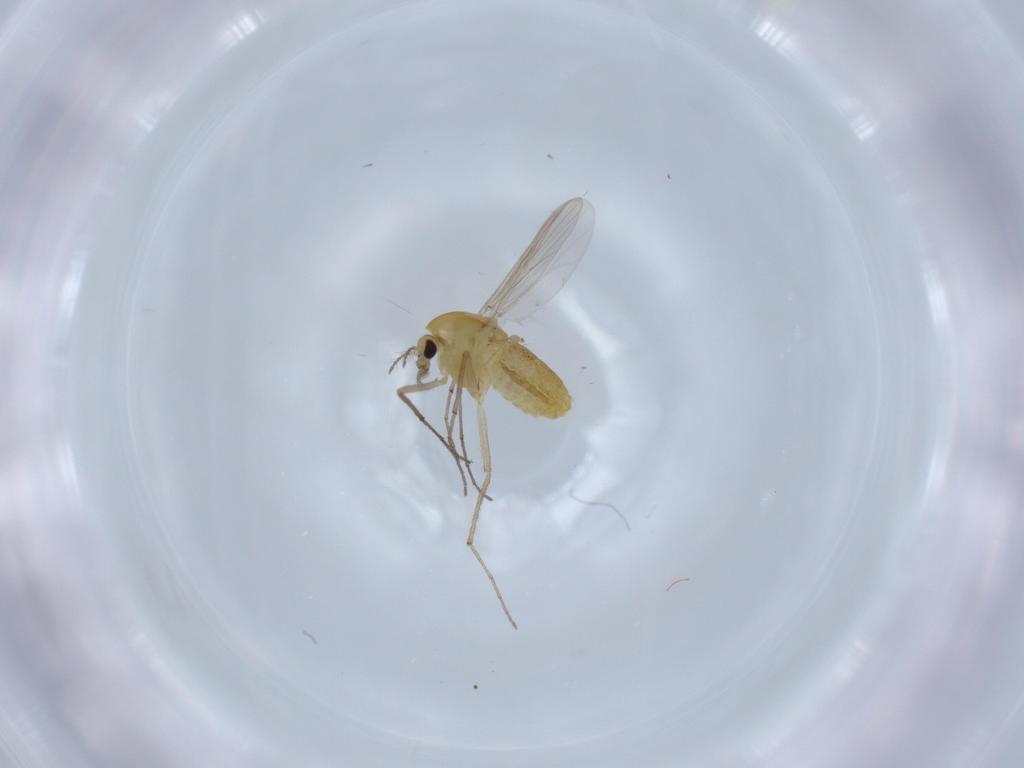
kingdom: Animalia
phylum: Arthropoda
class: Insecta
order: Diptera
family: Chironomidae
